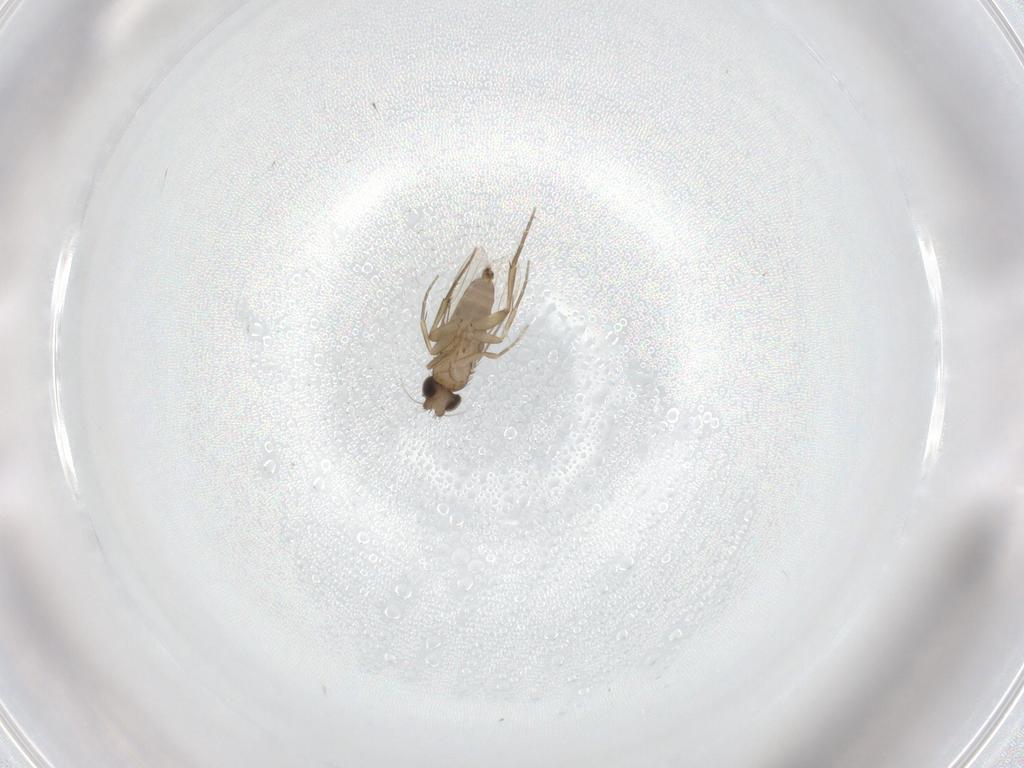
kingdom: Animalia
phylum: Arthropoda
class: Insecta
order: Diptera
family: Phoridae
